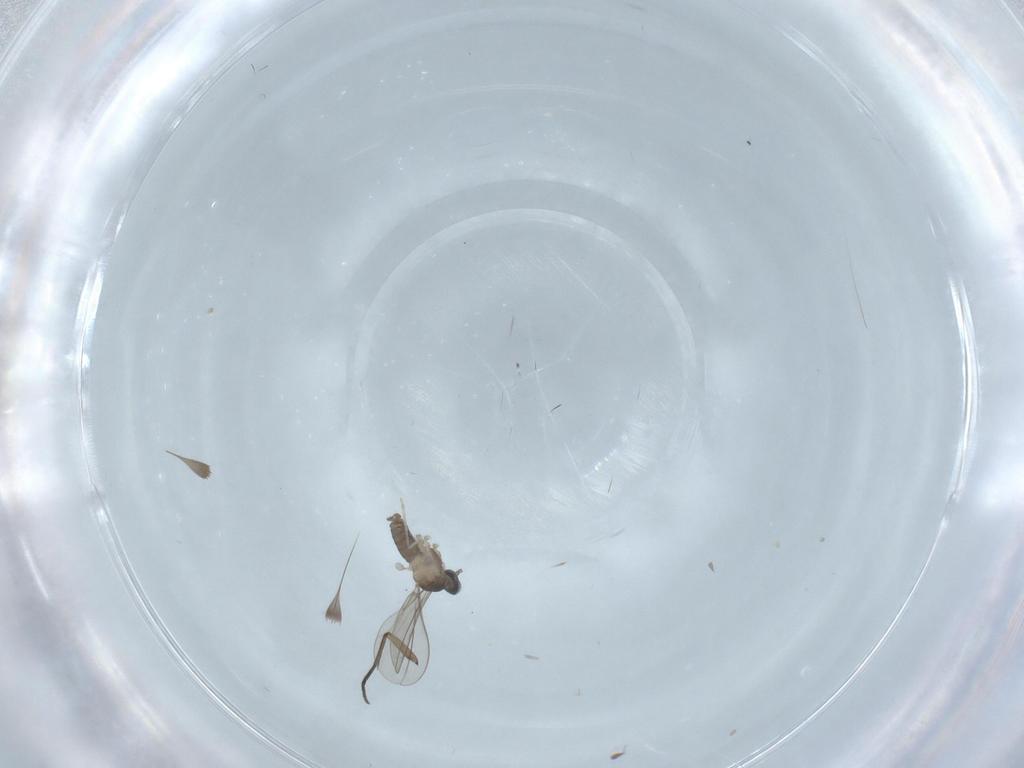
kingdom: Animalia
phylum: Arthropoda
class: Insecta
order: Diptera
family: Cecidomyiidae
